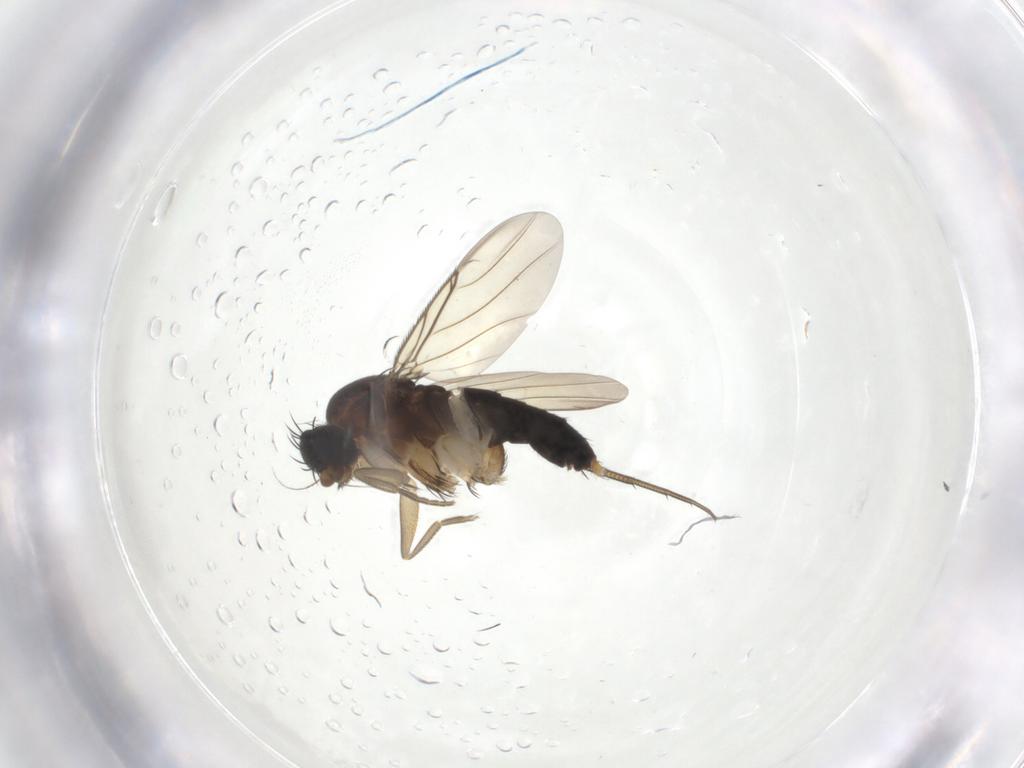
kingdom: Animalia
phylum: Arthropoda
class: Insecta
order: Diptera
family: Phoridae
